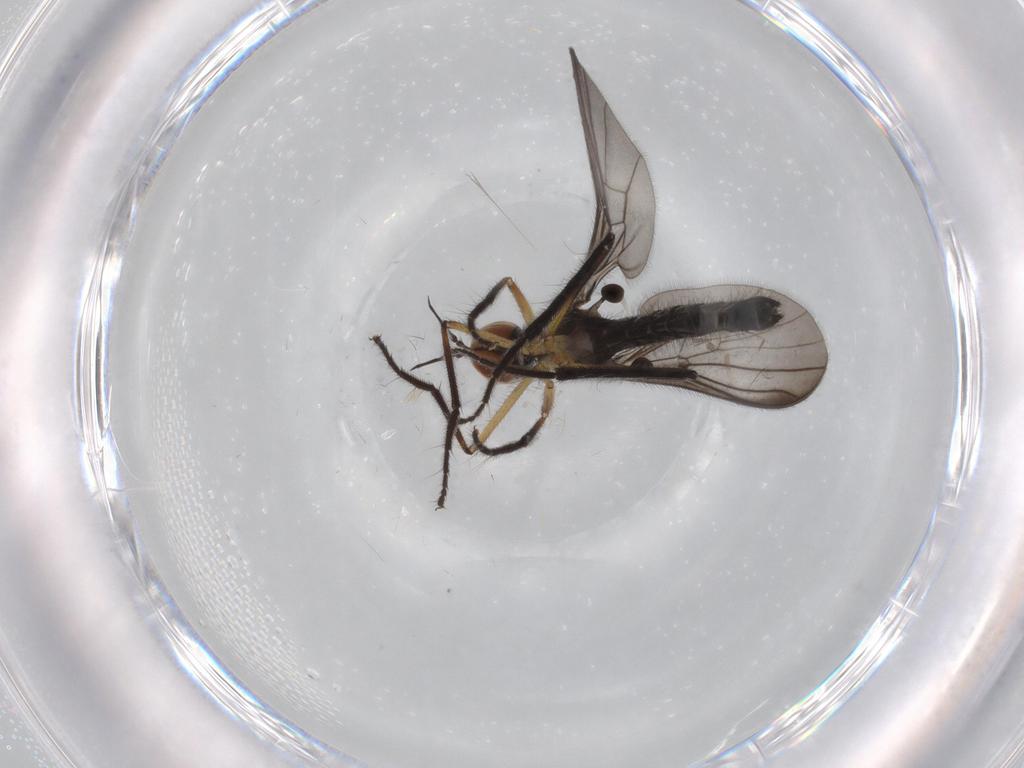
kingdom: Animalia
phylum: Arthropoda
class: Insecta
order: Diptera
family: Empididae
